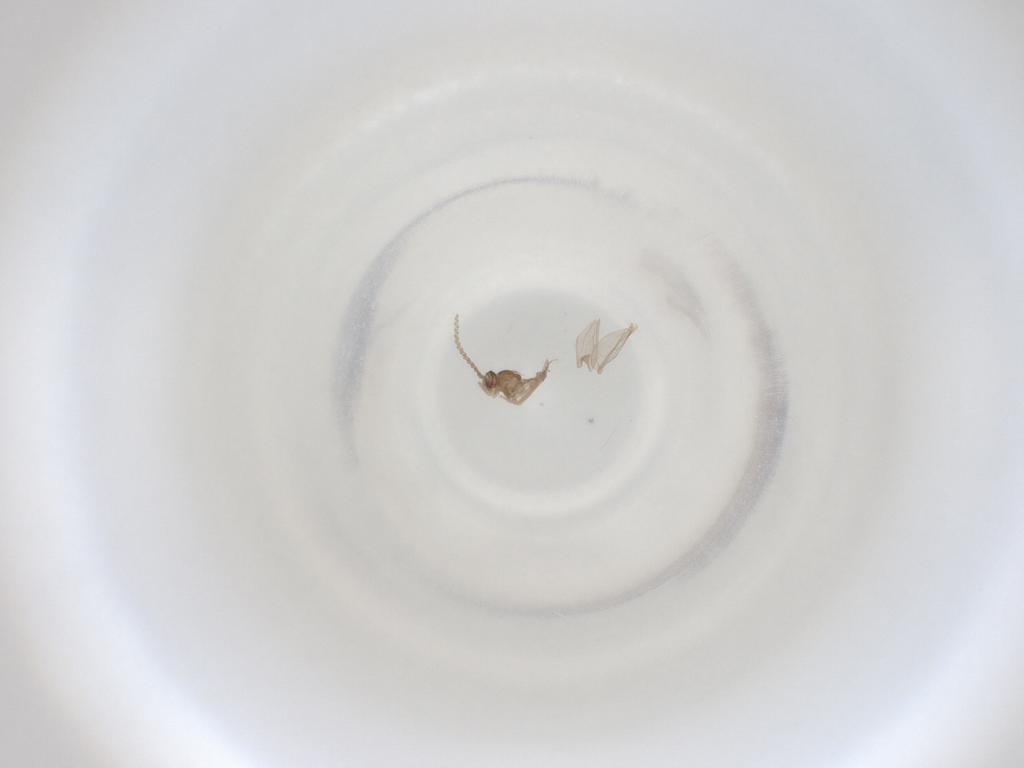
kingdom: Animalia
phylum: Arthropoda
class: Insecta
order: Diptera
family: Cecidomyiidae
